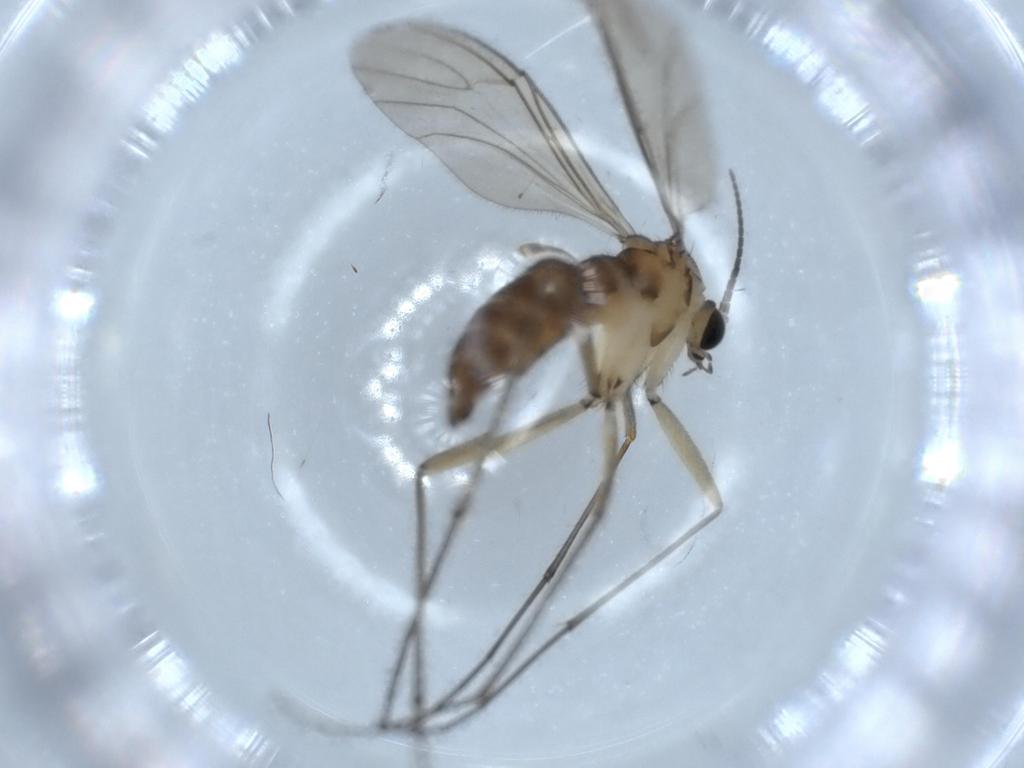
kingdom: Animalia
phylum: Arthropoda
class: Insecta
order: Diptera
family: Sciaridae
